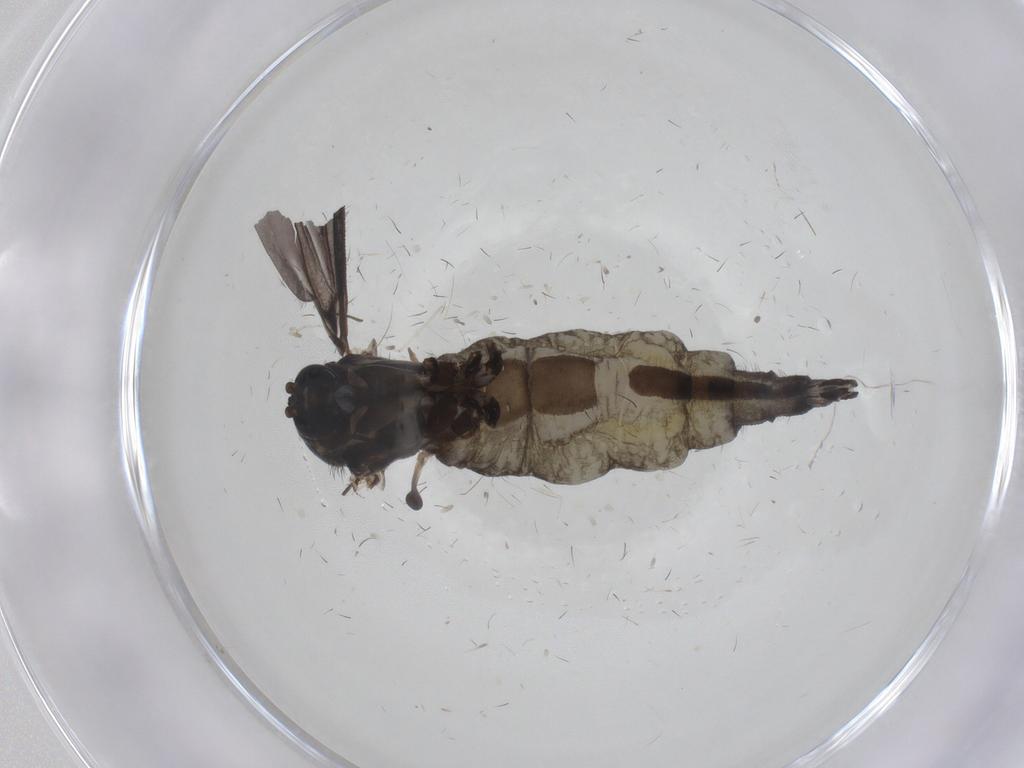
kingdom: Animalia
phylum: Arthropoda
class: Insecta
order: Diptera
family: Sciaridae
